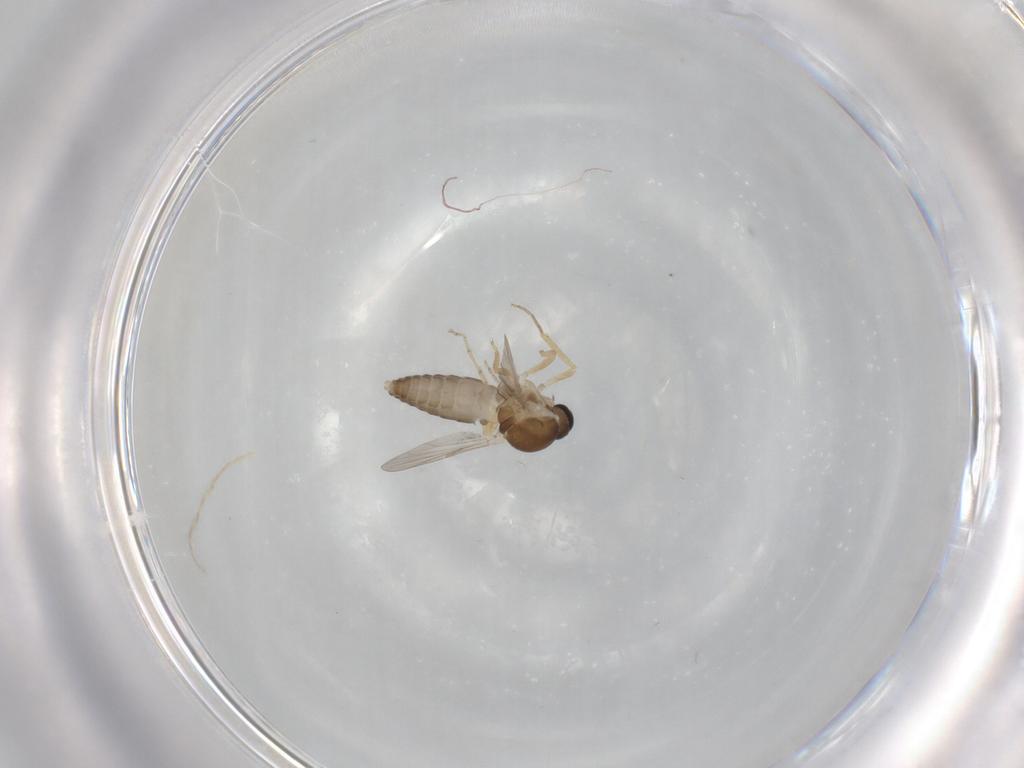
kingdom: Animalia
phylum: Arthropoda
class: Insecta
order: Diptera
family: Ceratopogonidae
